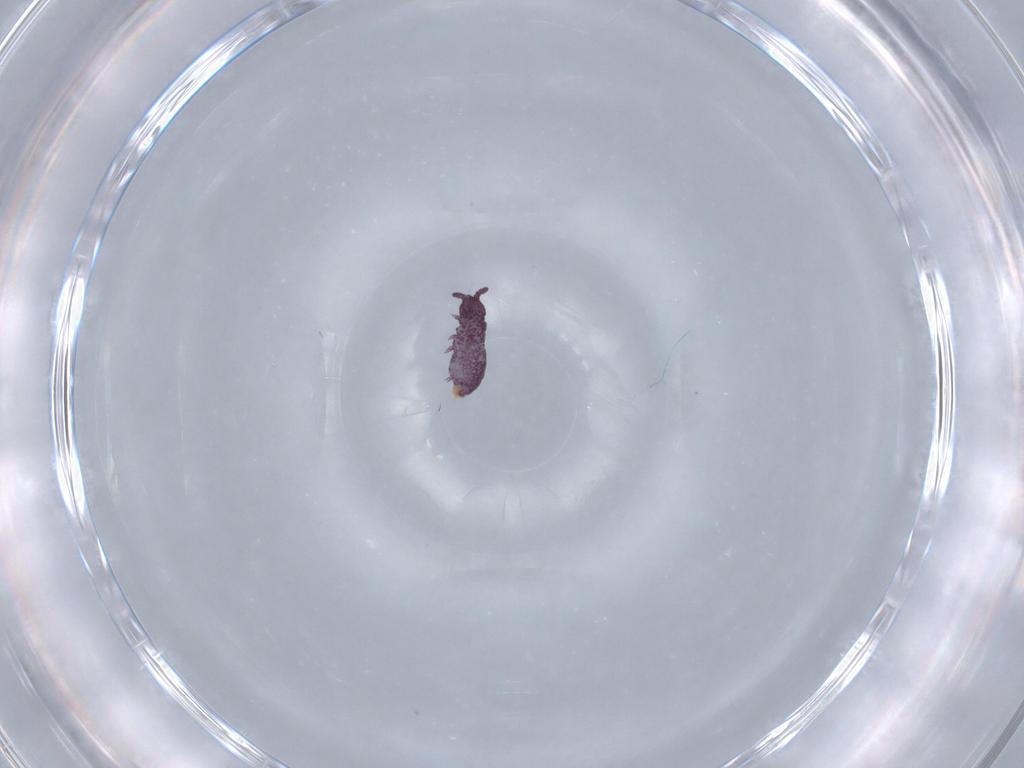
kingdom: Animalia
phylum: Arthropoda
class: Collembola
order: Poduromorpha
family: Brachystomellidae
